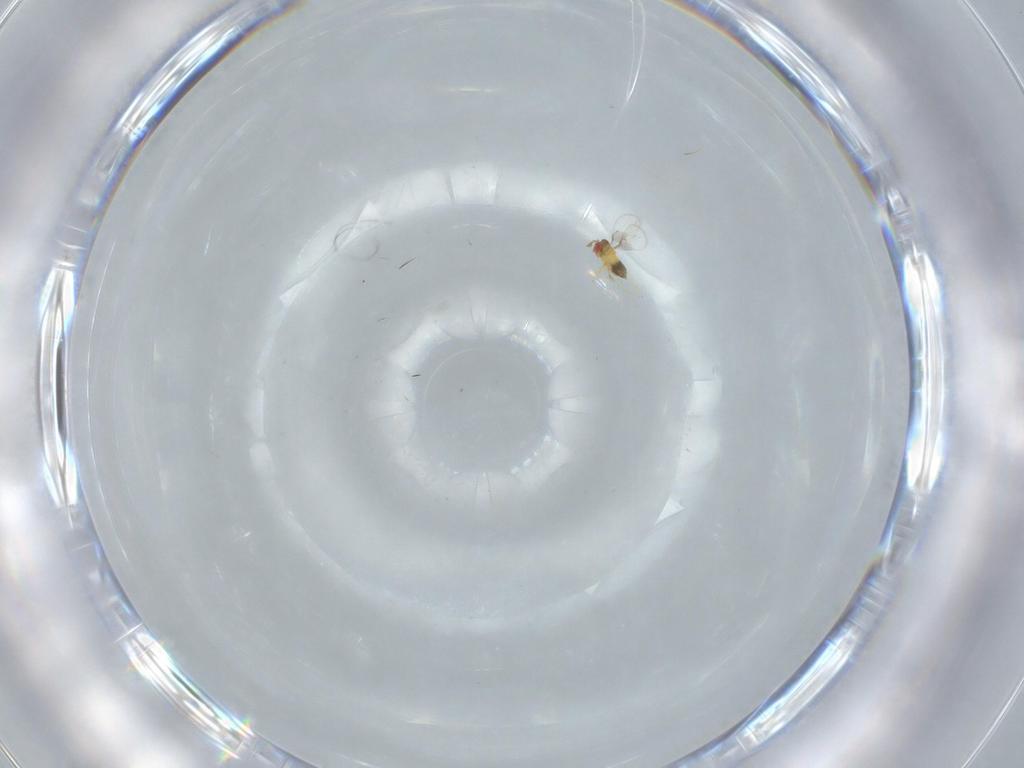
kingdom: Animalia
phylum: Arthropoda
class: Insecta
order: Hymenoptera
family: Trichogrammatidae
